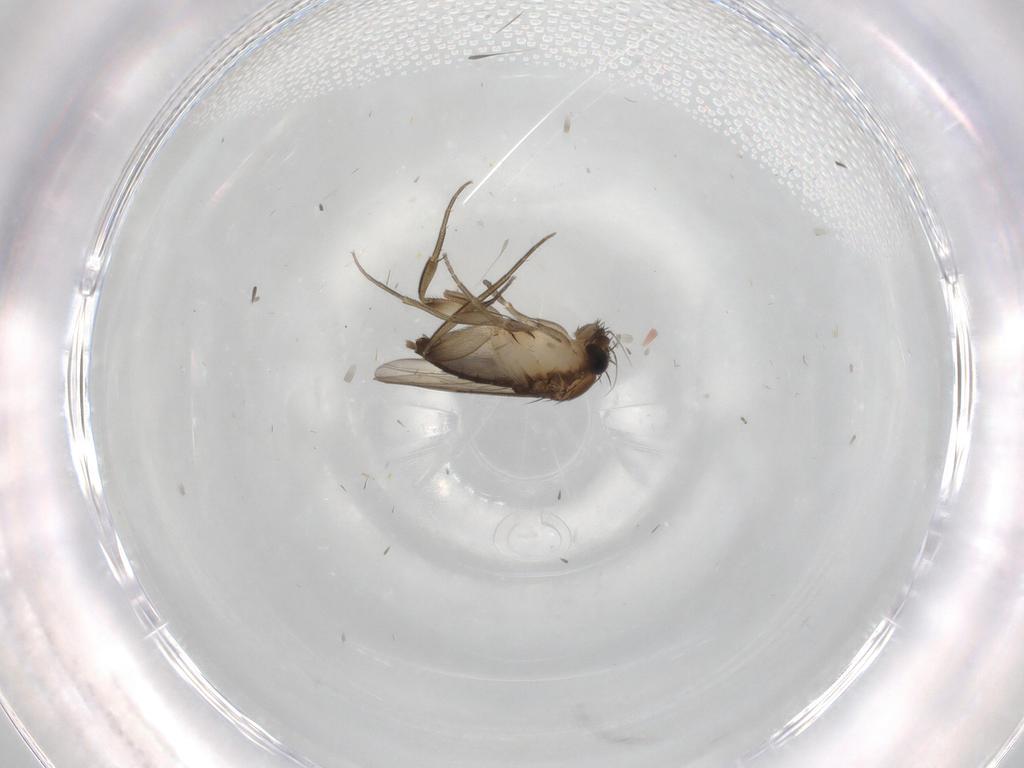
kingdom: Animalia
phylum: Arthropoda
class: Insecta
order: Diptera
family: Phoridae
